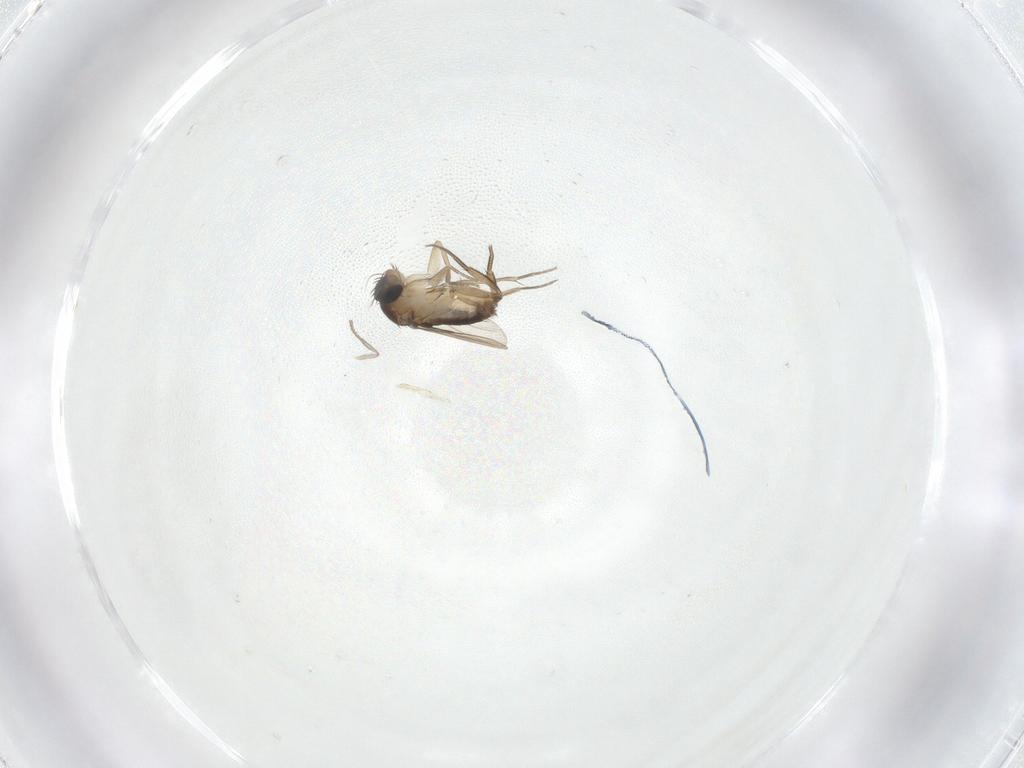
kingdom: Animalia
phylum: Arthropoda
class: Insecta
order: Diptera
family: Phoridae
